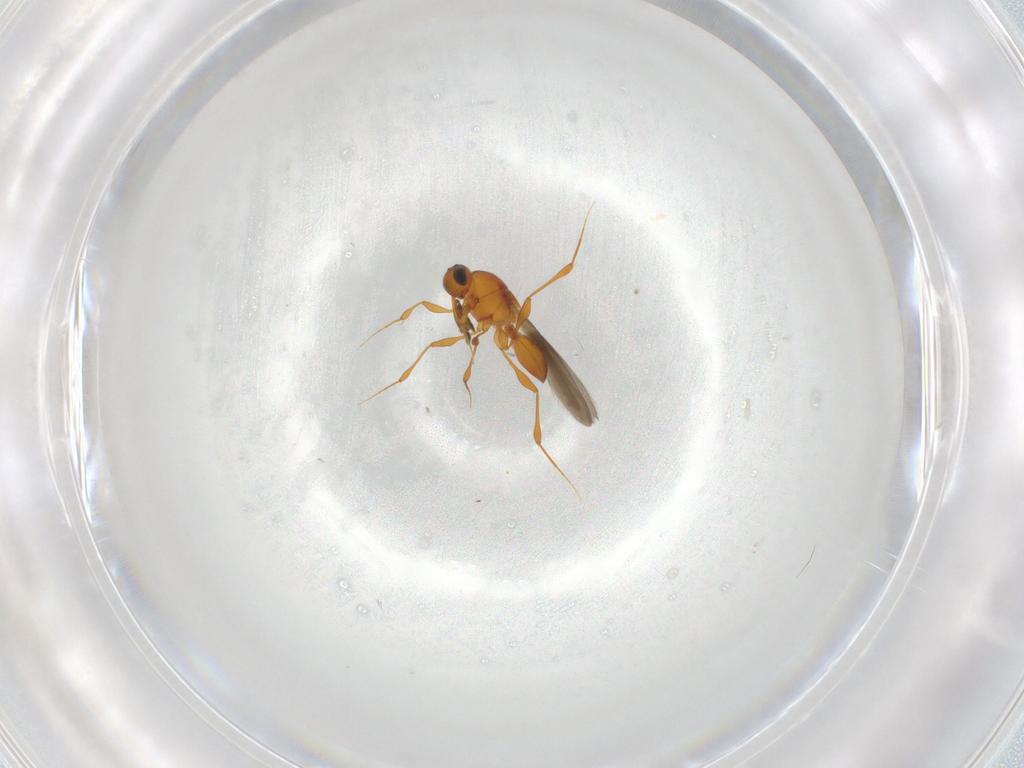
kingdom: Animalia
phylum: Arthropoda
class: Insecta
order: Hymenoptera
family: Platygastridae
